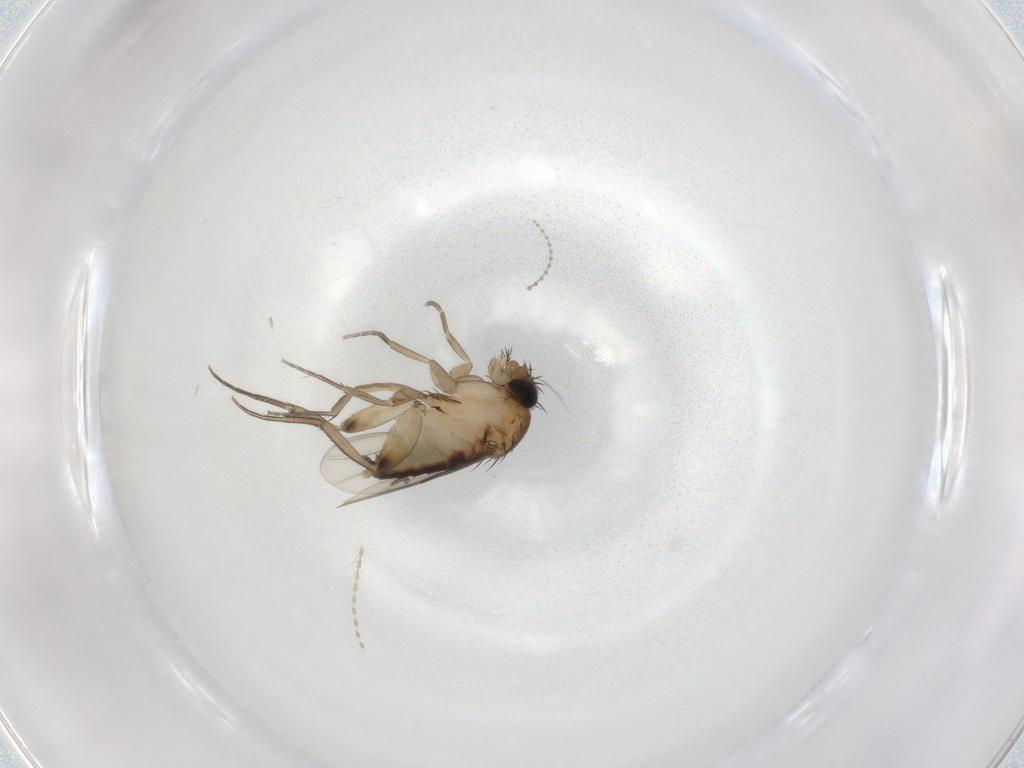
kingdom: Animalia
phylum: Arthropoda
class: Insecta
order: Diptera
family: Phoridae
